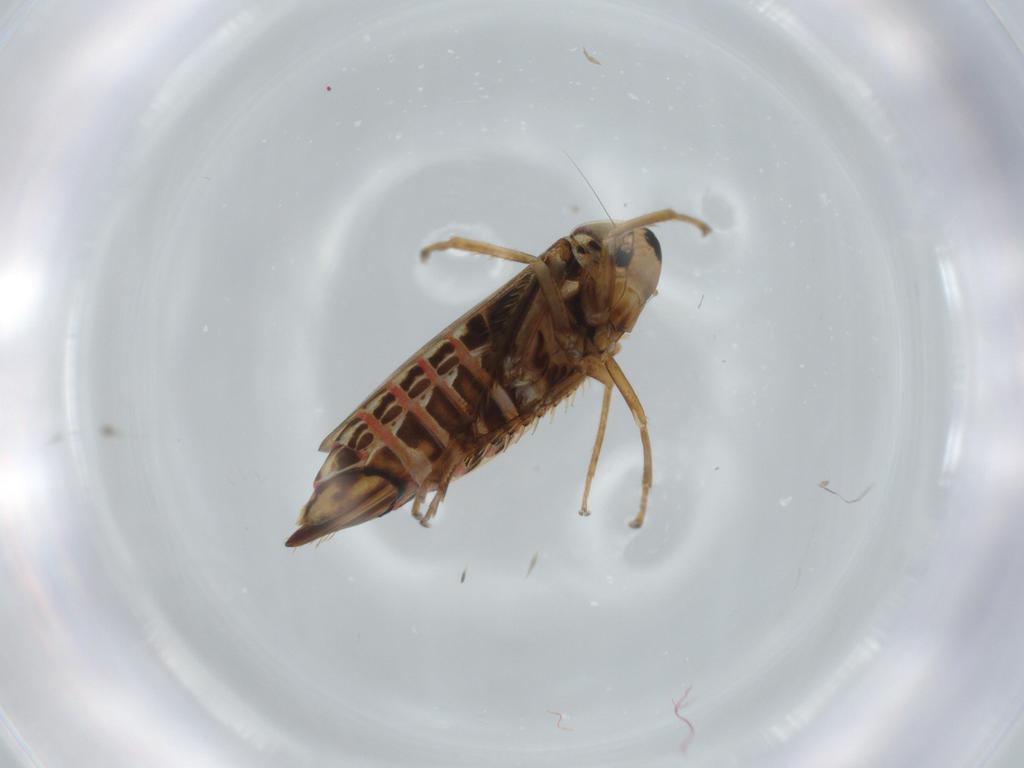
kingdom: Animalia
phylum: Arthropoda
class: Insecta
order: Hemiptera
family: Cicadellidae
